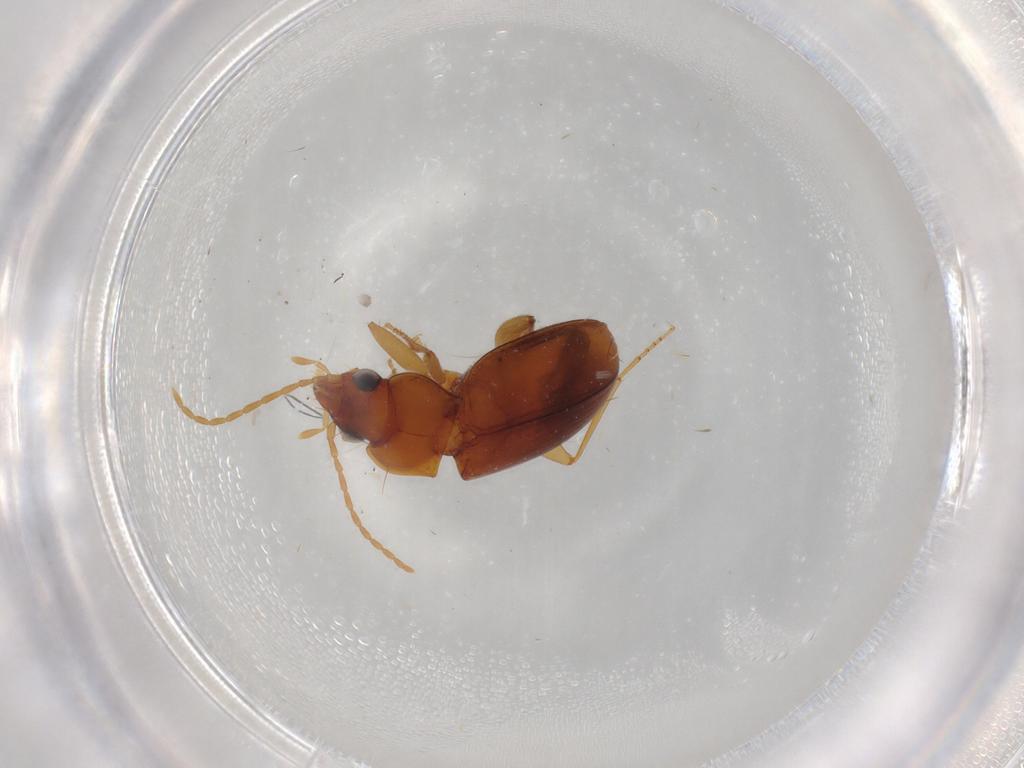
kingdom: Animalia
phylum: Arthropoda
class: Insecta
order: Coleoptera
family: Carabidae
